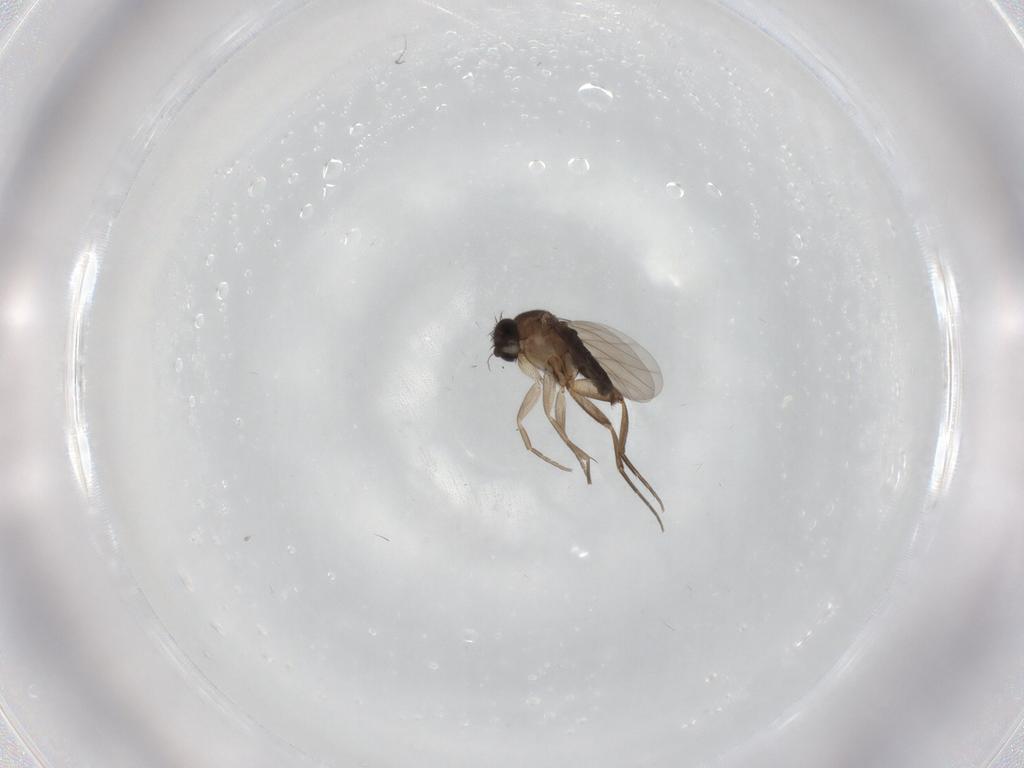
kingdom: Animalia
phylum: Arthropoda
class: Insecta
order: Diptera
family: Phoridae
